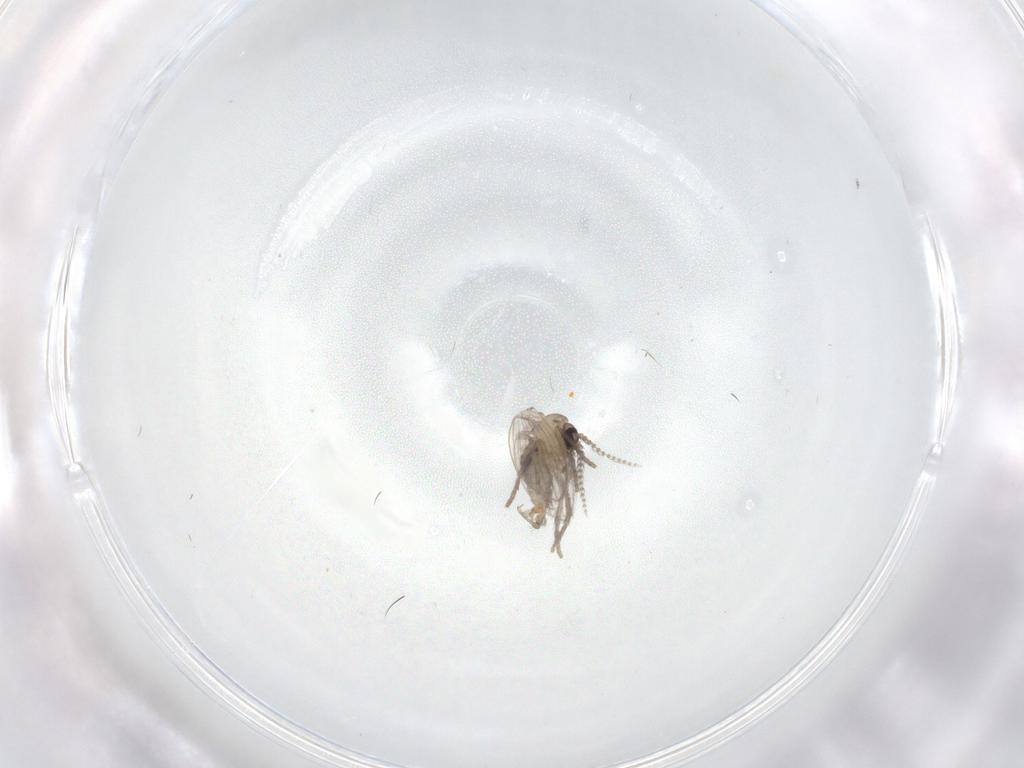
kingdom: Animalia
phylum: Arthropoda
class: Insecta
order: Diptera
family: Psychodidae
